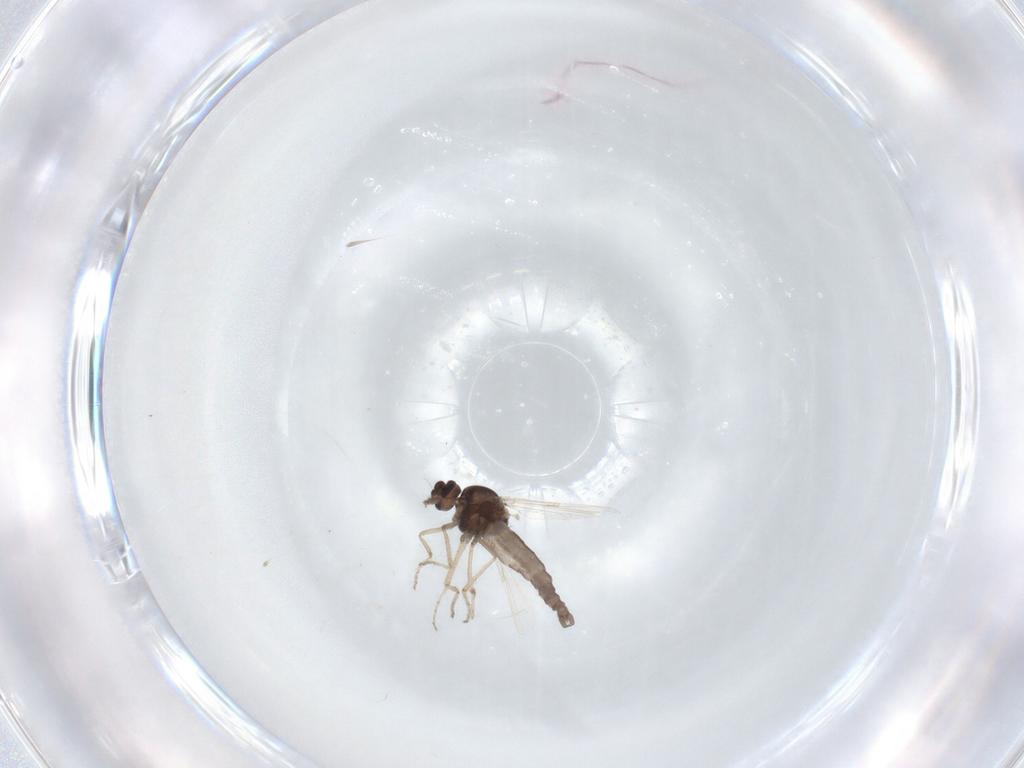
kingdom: Animalia
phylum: Arthropoda
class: Insecta
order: Diptera
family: Ceratopogonidae
